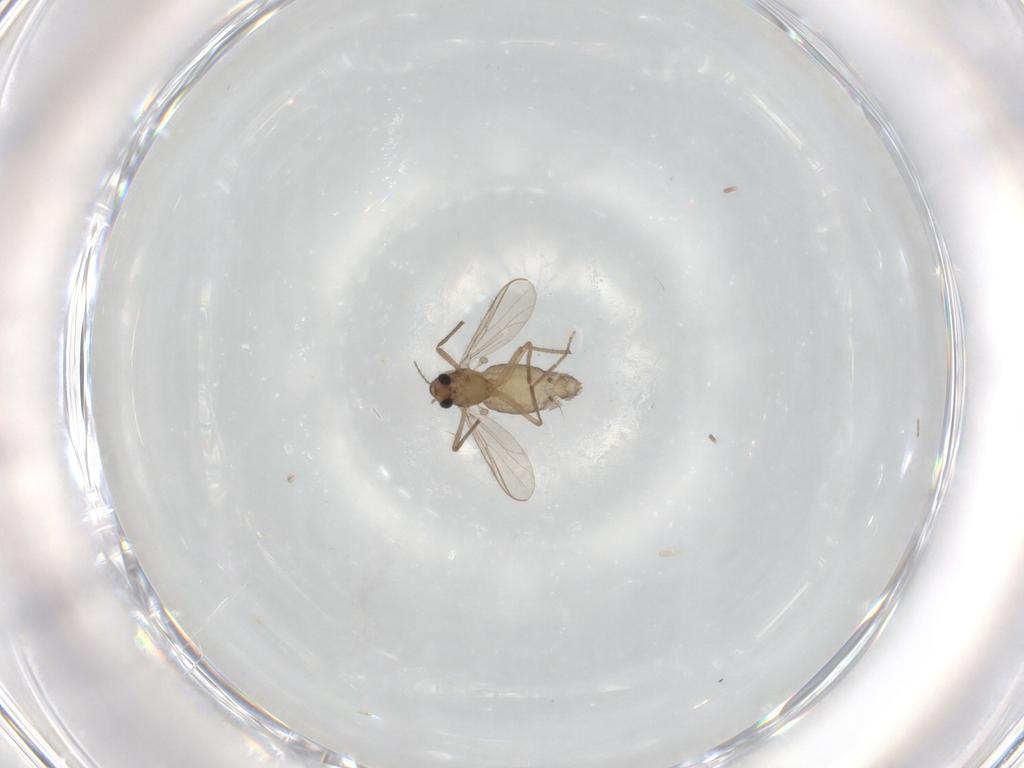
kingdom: Animalia
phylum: Arthropoda
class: Insecta
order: Diptera
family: Chironomidae
